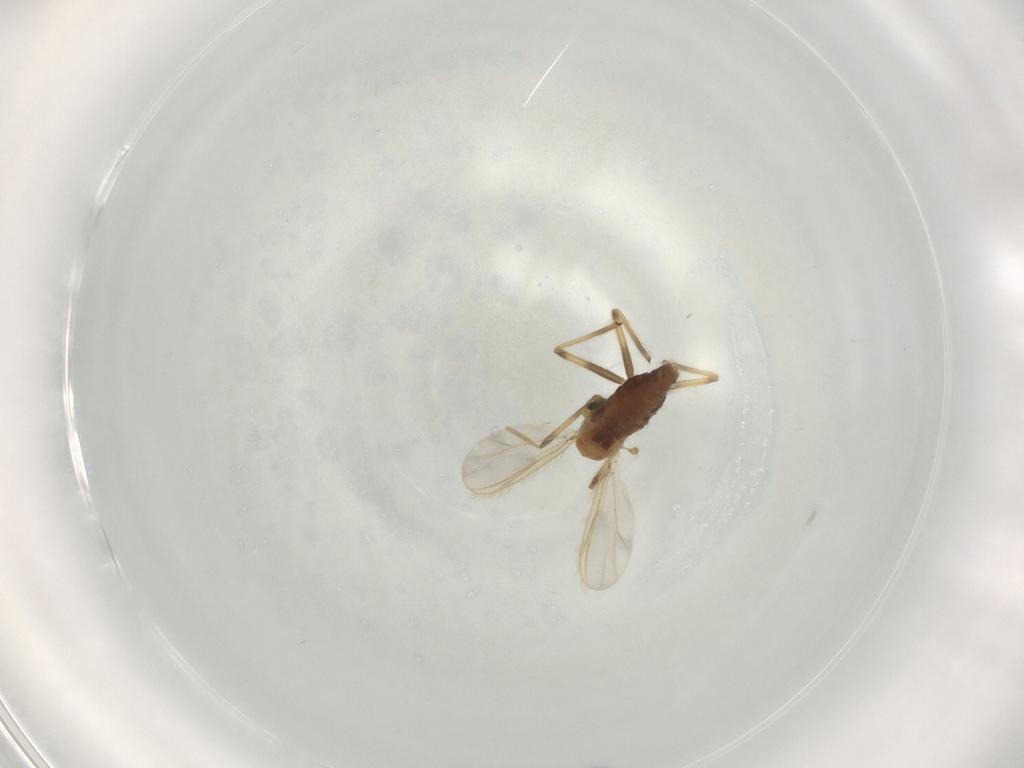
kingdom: Animalia
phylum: Arthropoda
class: Insecta
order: Diptera
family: Chironomidae
